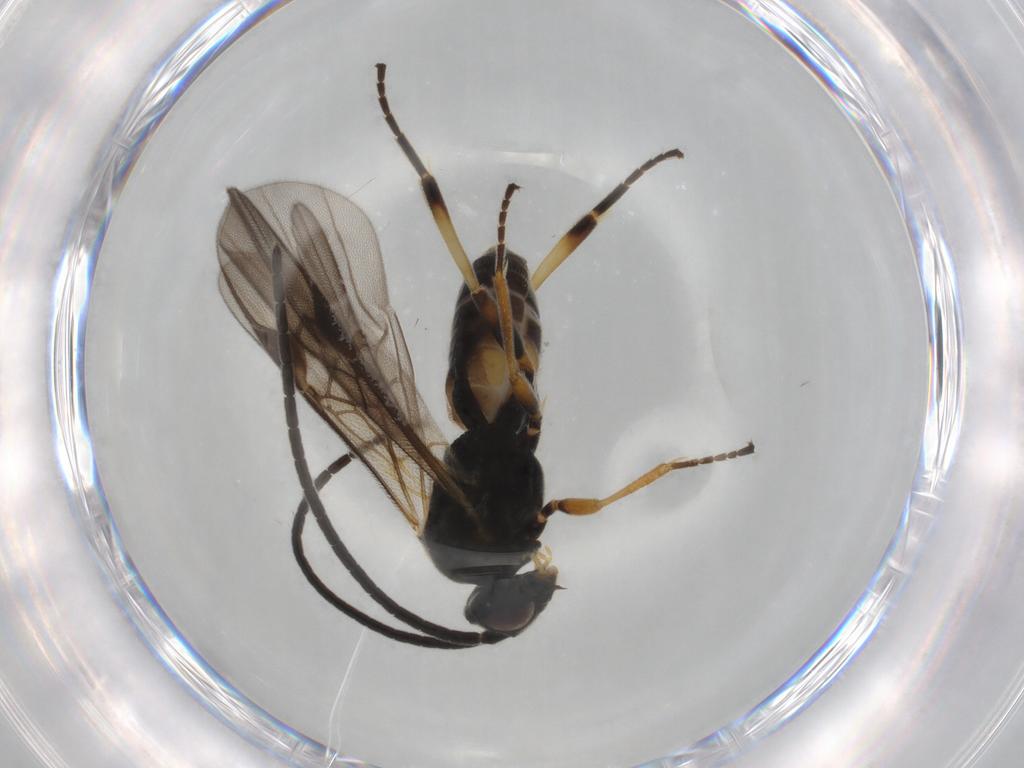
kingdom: Animalia
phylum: Arthropoda
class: Insecta
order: Hymenoptera
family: Braconidae
